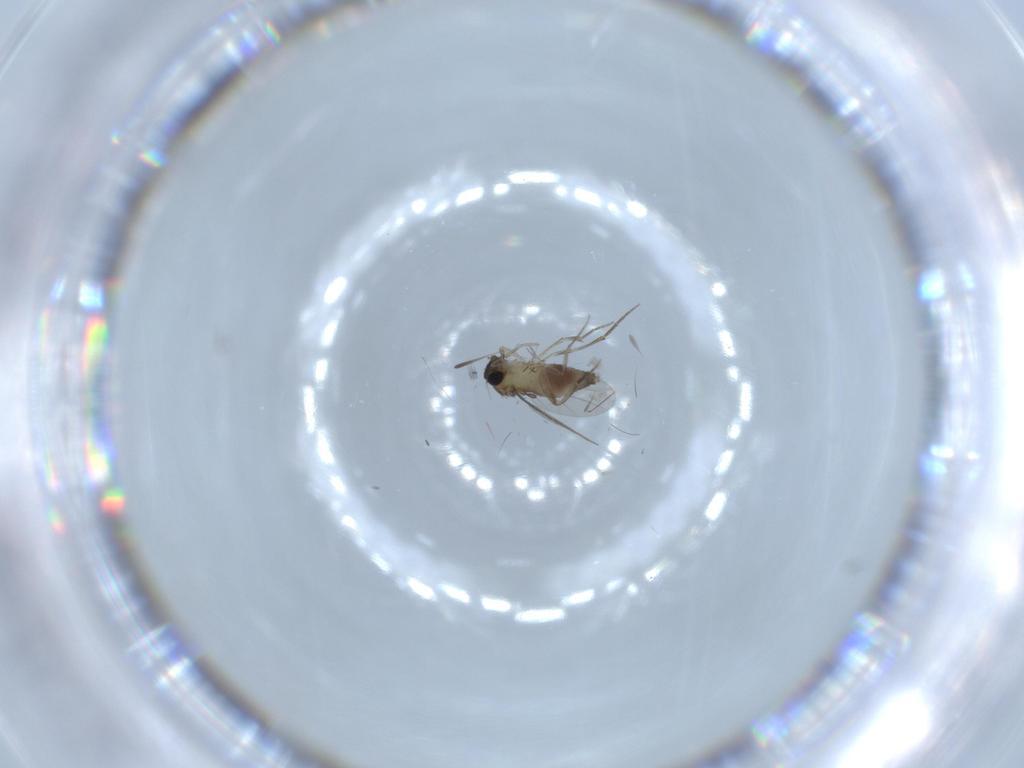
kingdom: Animalia
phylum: Arthropoda
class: Insecta
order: Diptera
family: Phoridae
